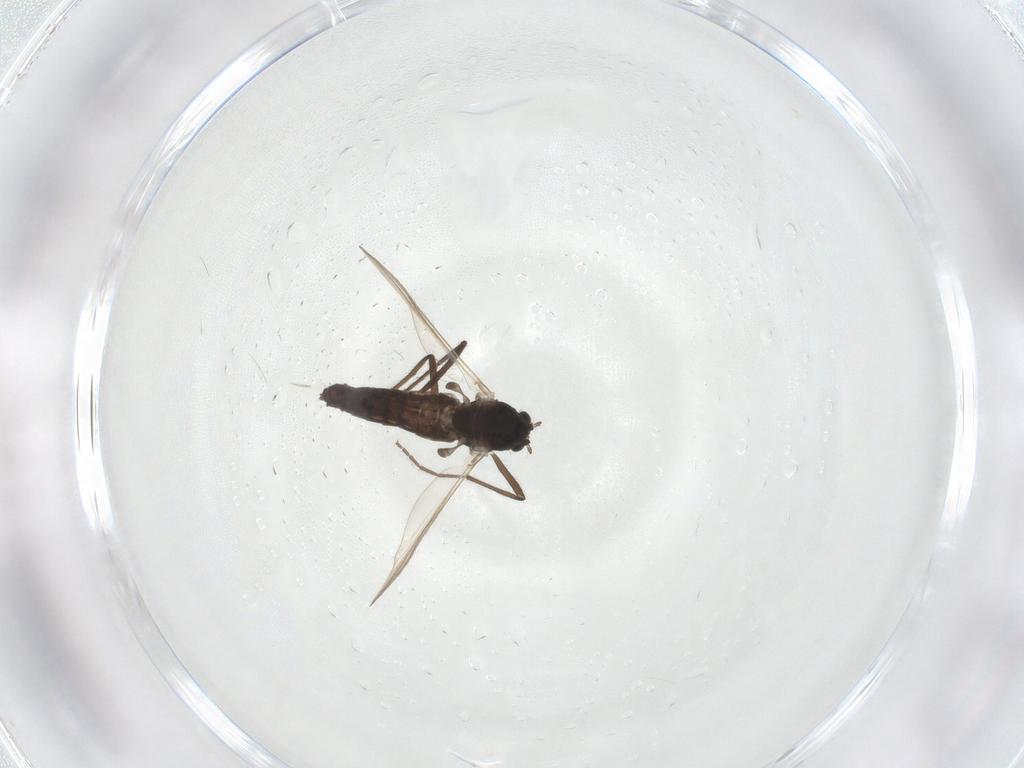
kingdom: Animalia
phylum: Arthropoda
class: Insecta
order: Diptera
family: Chironomidae
